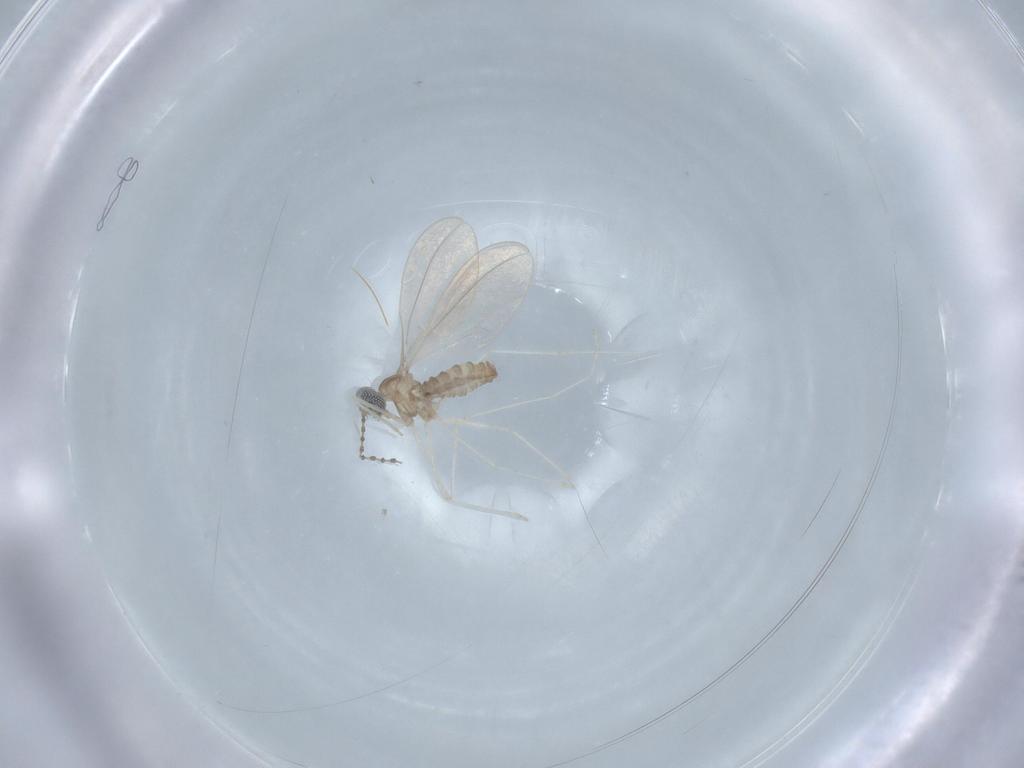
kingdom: Animalia
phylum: Arthropoda
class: Insecta
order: Diptera
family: Cecidomyiidae
